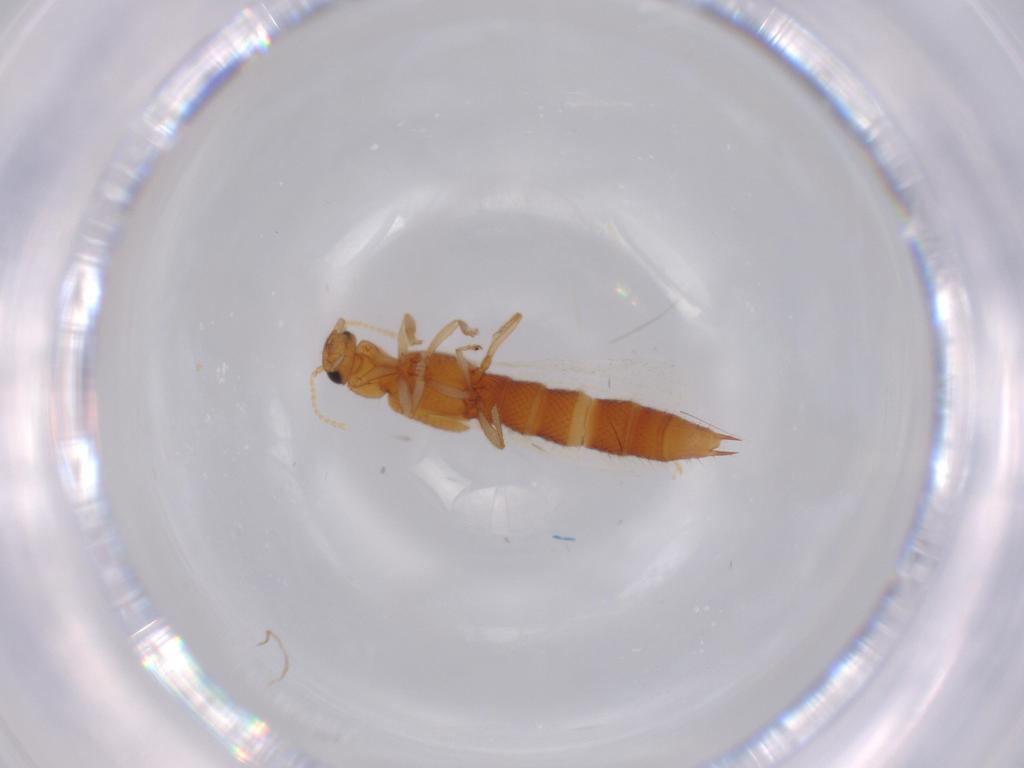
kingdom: Animalia
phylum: Arthropoda
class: Insecta
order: Coleoptera
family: Staphylinidae
